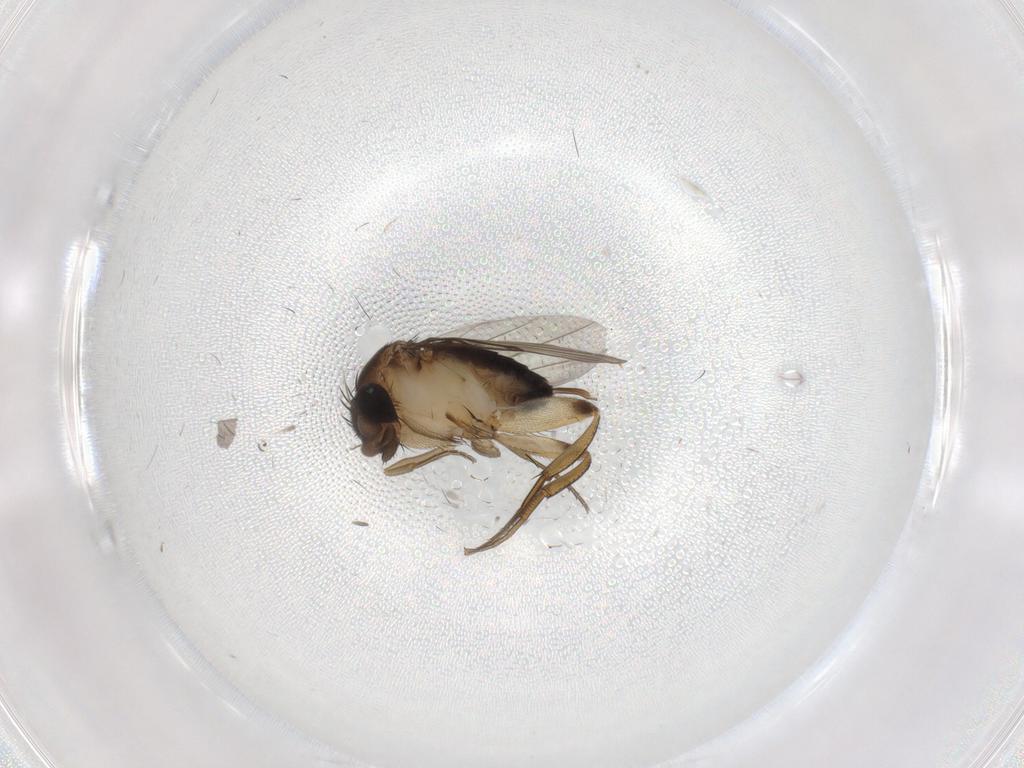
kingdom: Animalia
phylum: Arthropoda
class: Insecta
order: Diptera
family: Phoridae
